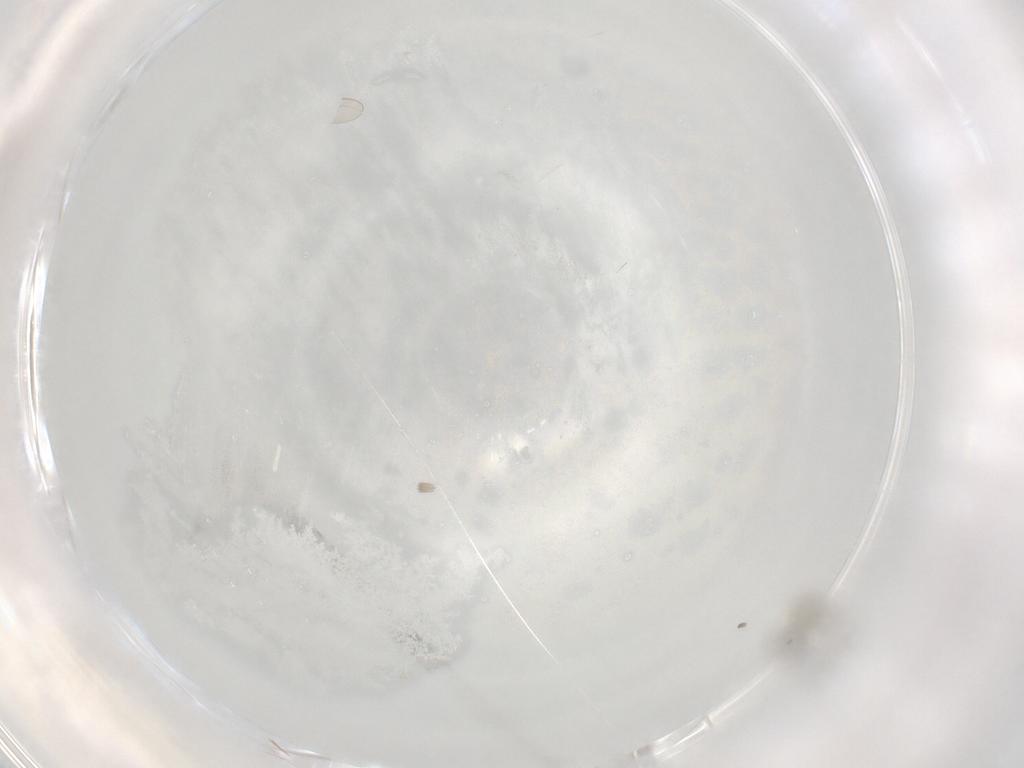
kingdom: Animalia
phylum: Arthropoda
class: Insecta
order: Diptera
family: Cecidomyiidae
